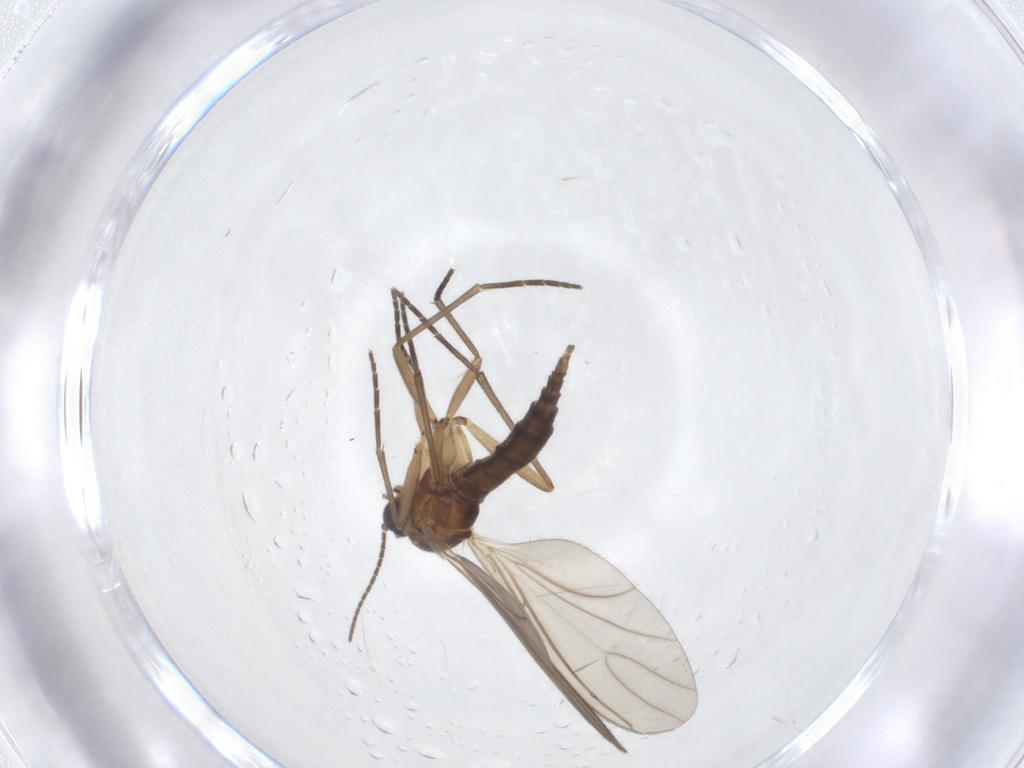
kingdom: Animalia
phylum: Arthropoda
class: Insecta
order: Diptera
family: Sciaridae
